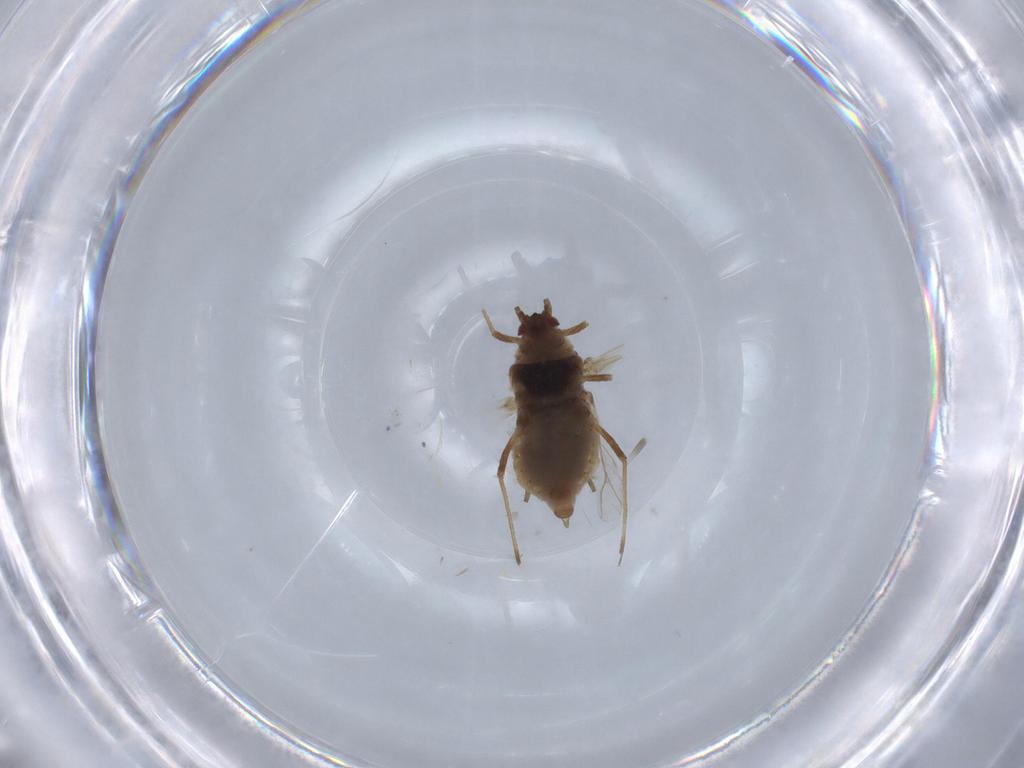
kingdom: Animalia
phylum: Arthropoda
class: Insecta
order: Hemiptera
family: Aphididae
